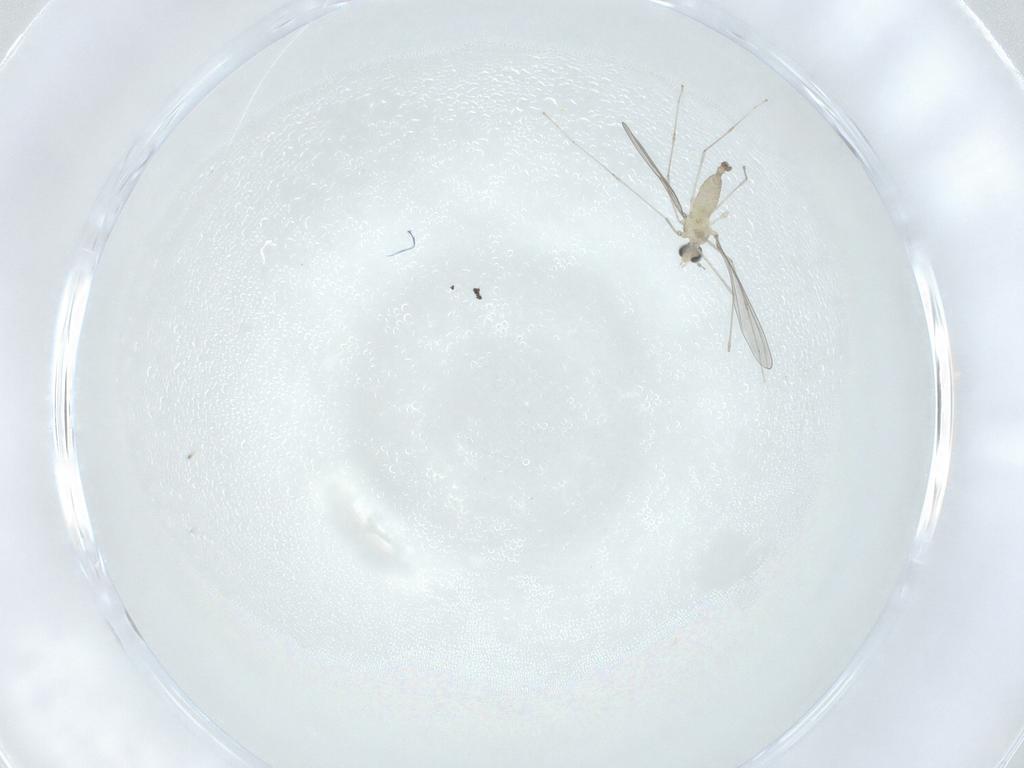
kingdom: Animalia
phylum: Arthropoda
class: Insecta
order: Diptera
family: Cecidomyiidae
